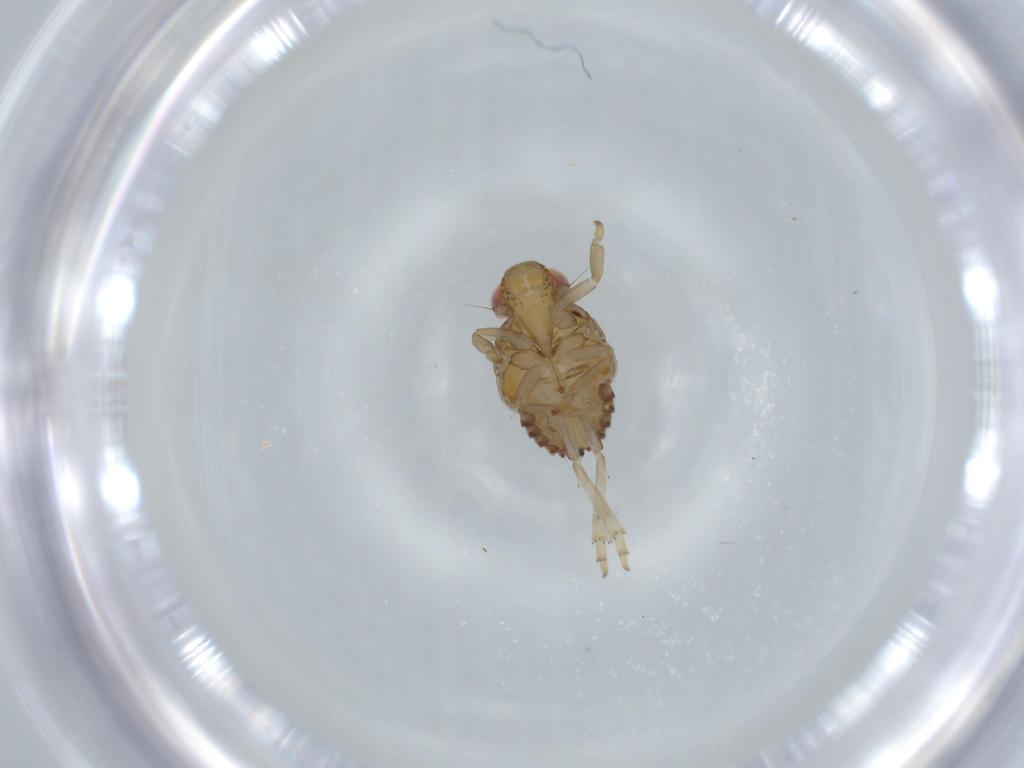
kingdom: Animalia
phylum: Arthropoda
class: Insecta
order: Hemiptera
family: Issidae
